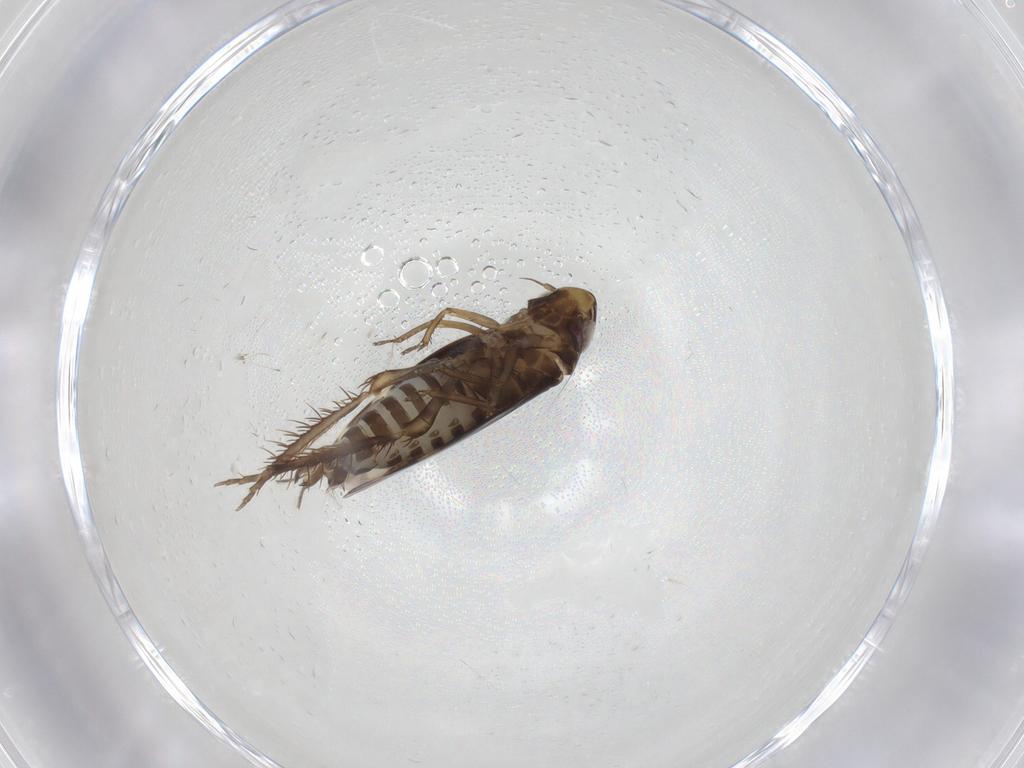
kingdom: Animalia
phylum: Arthropoda
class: Insecta
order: Hemiptera
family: Cicadellidae
